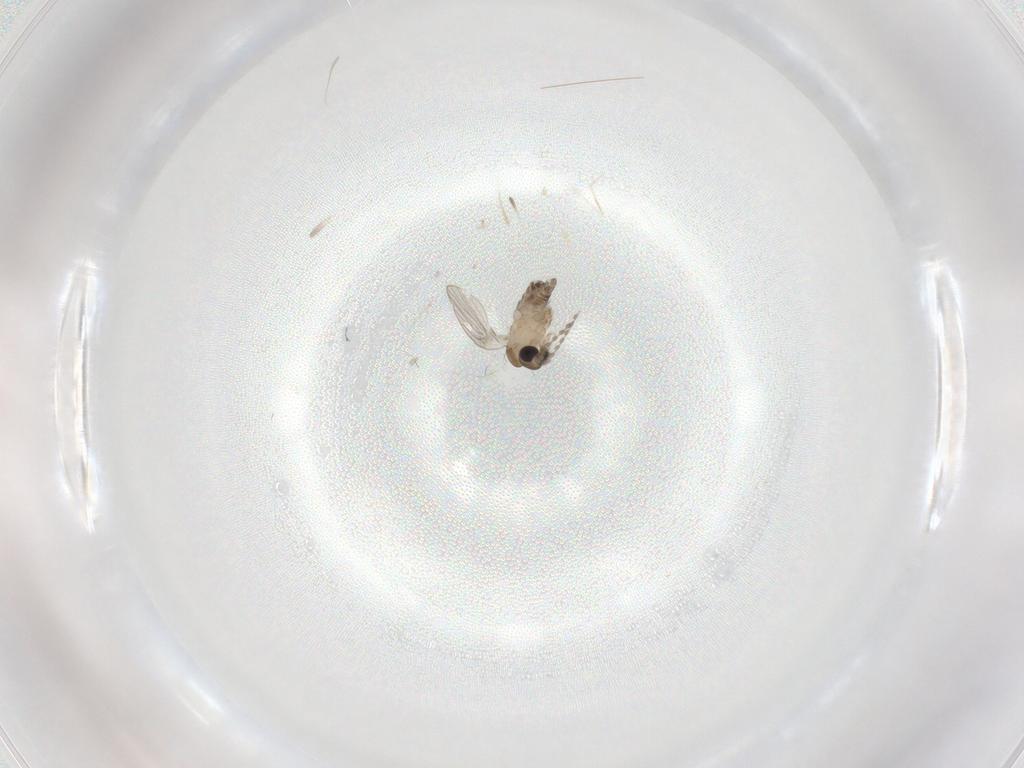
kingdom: Animalia
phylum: Arthropoda
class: Insecta
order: Diptera
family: Cecidomyiidae
